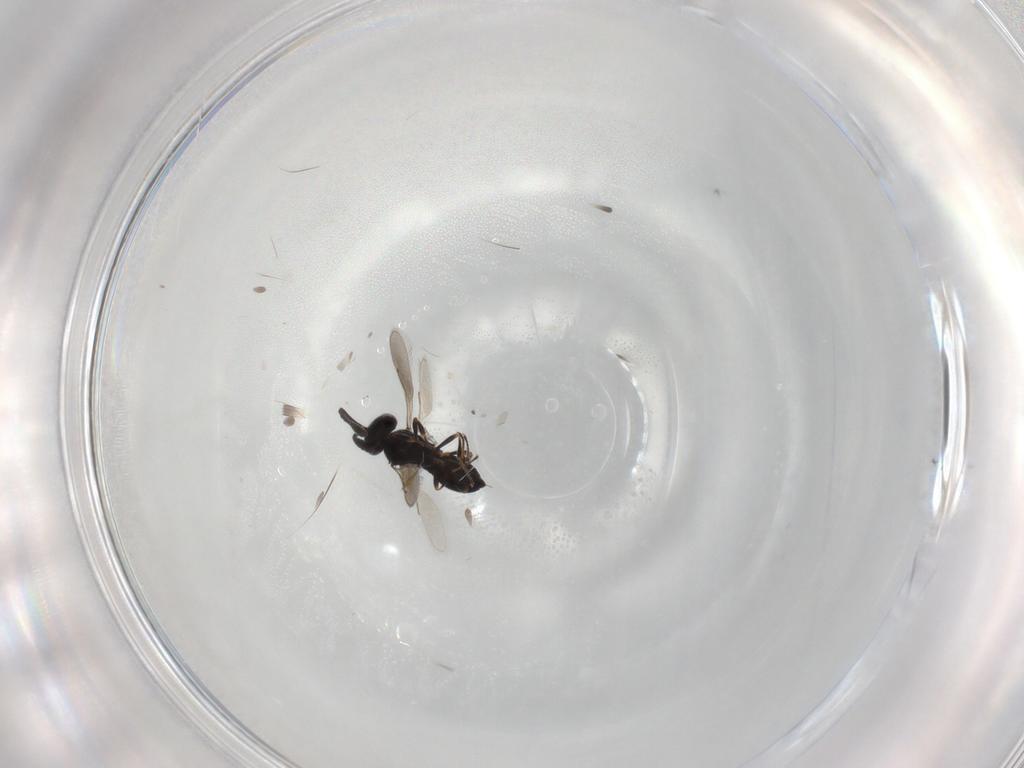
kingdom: Animalia
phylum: Arthropoda
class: Insecta
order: Hymenoptera
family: Scelionidae
